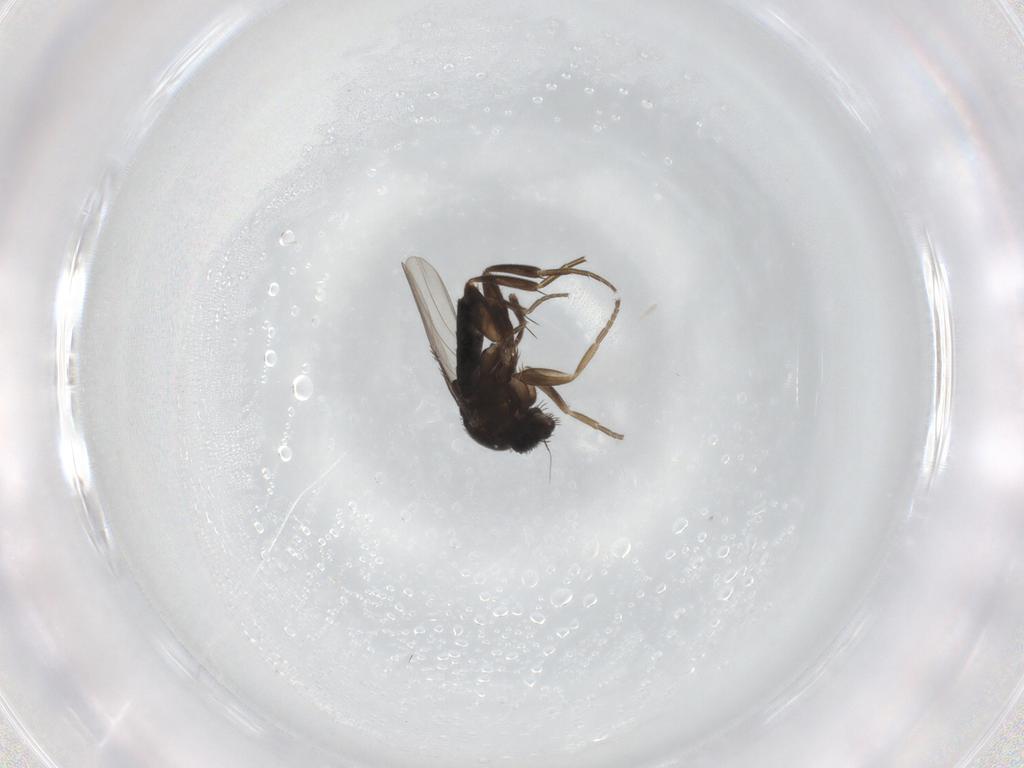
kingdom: Animalia
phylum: Arthropoda
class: Insecta
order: Diptera
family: Phoridae
